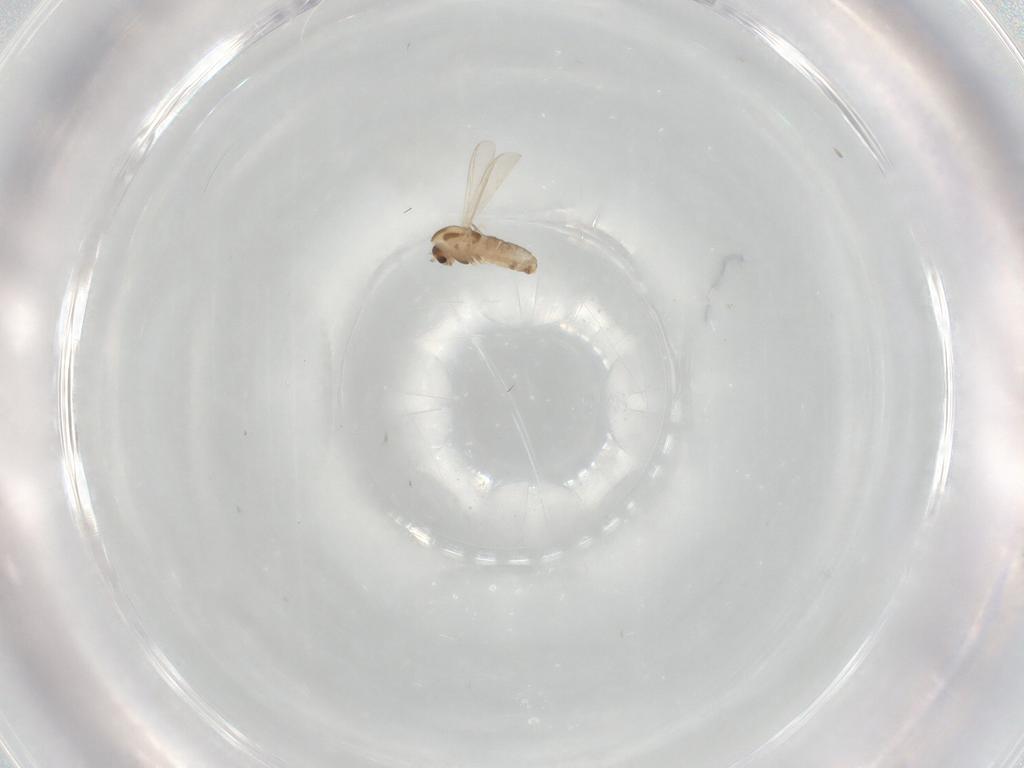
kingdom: Animalia
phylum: Arthropoda
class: Insecta
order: Diptera
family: Chironomidae
